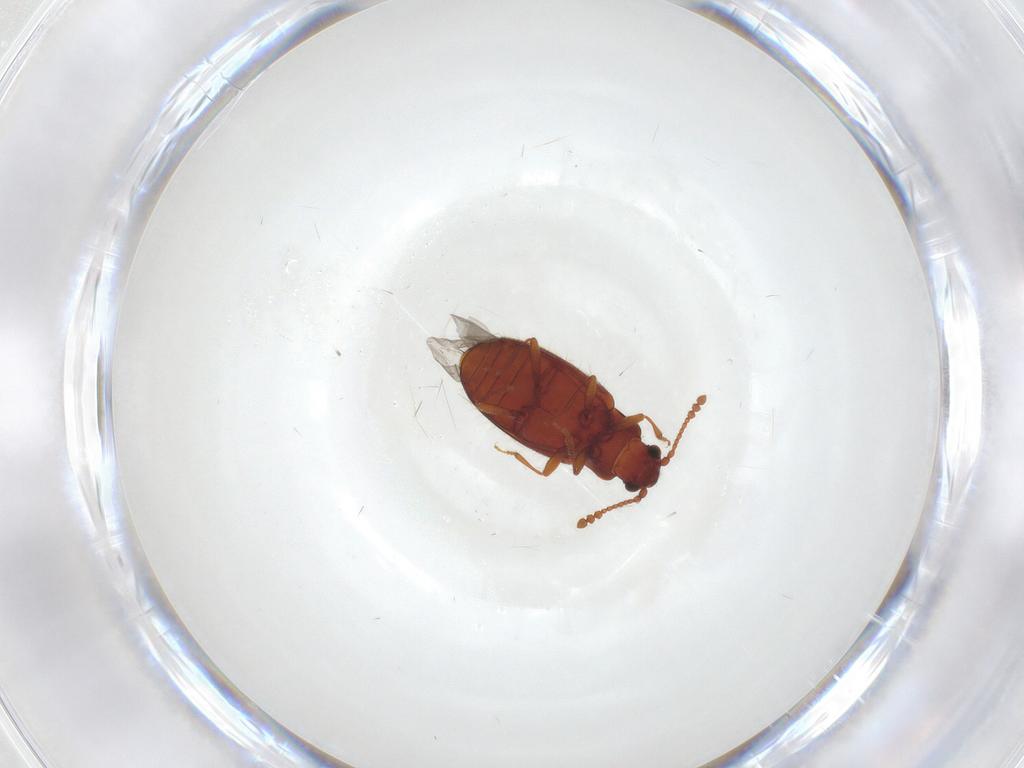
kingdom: Animalia
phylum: Arthropoda
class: Insecta
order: Coleoptera
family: Cryptophagidae
